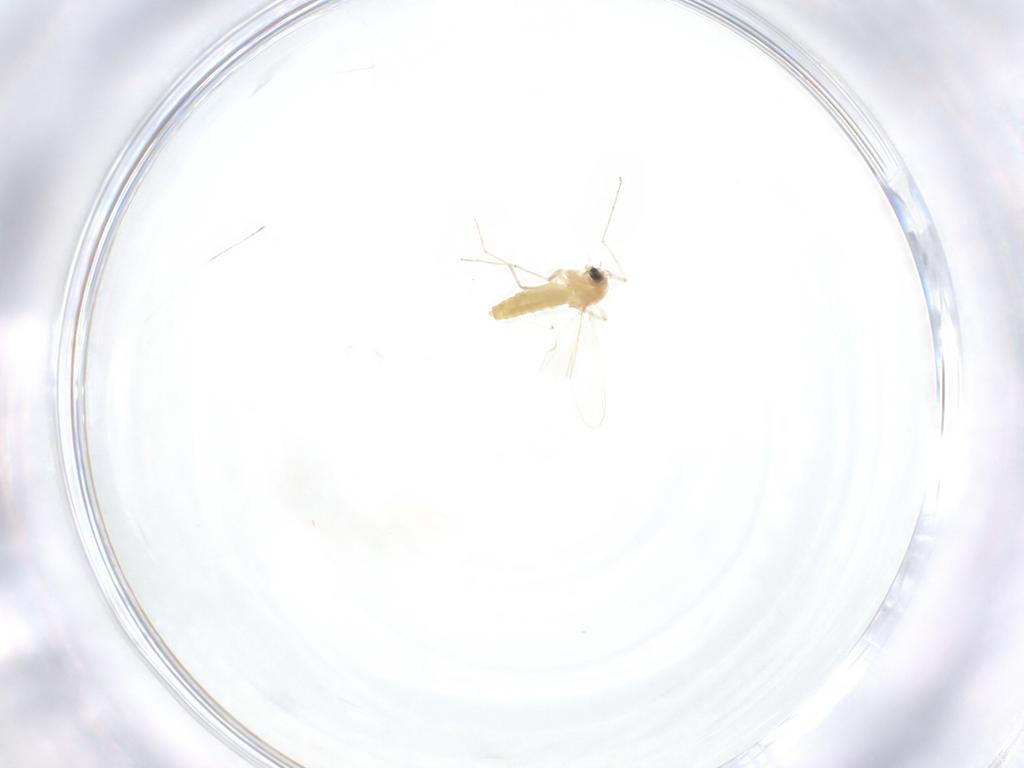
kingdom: Animalia
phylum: Arthropoda
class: Insecta
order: Diptera
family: Chironomidae
